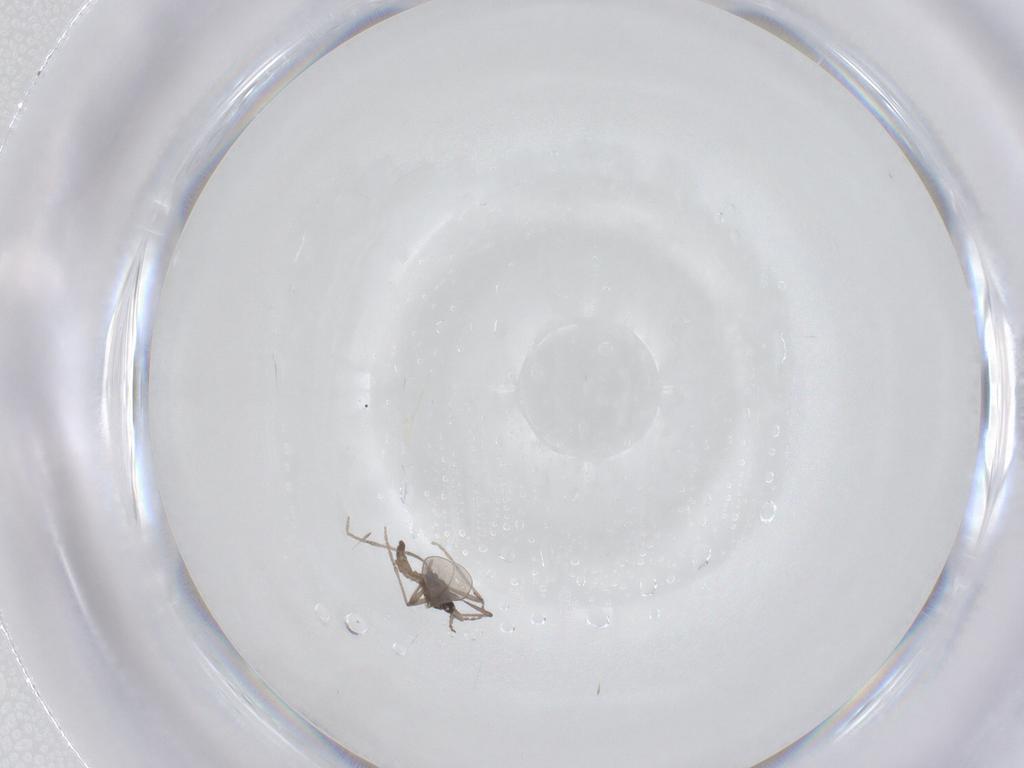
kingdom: Animalia
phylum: Arthropoda
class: Insecta
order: Diptera
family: Cecidomyiidae
